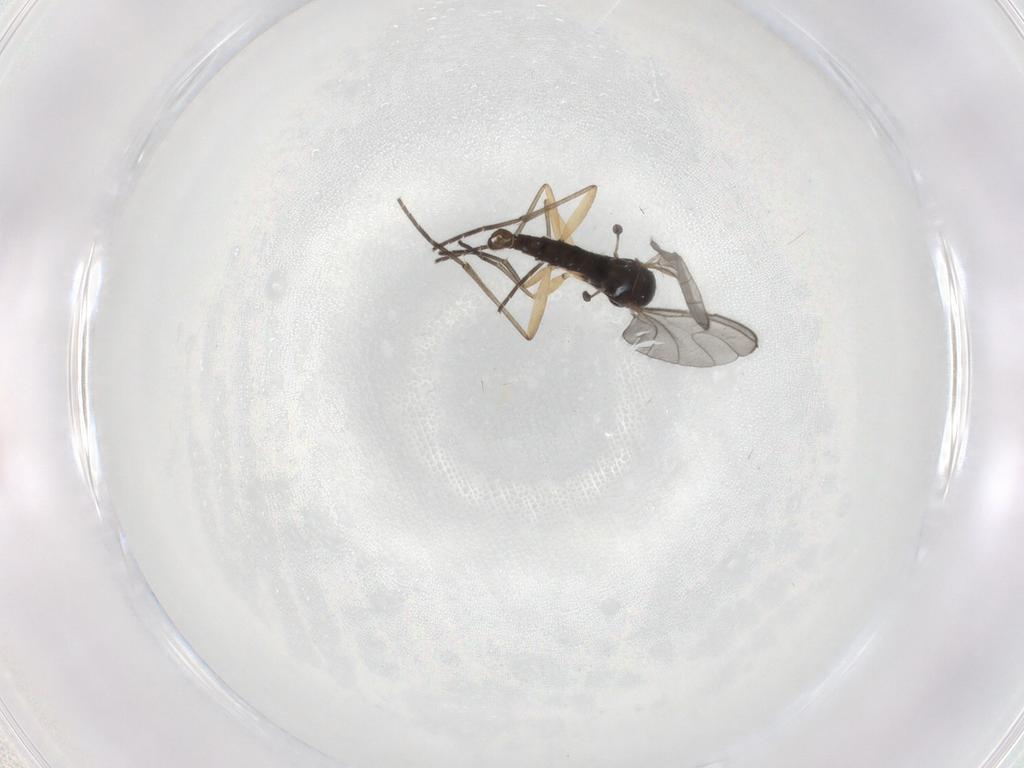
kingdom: Animalia
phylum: Arthropoda
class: Insecta
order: Diptera
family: Sciaridae
